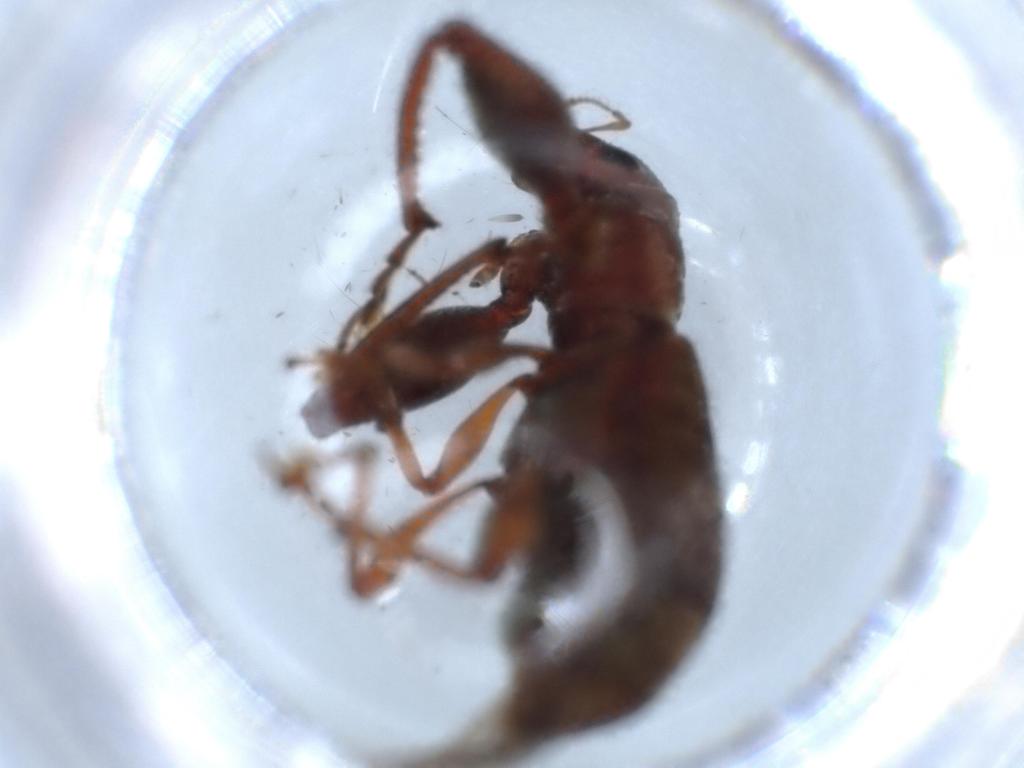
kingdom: Animalia
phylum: Arthropoda
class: Insecta
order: Coleoptera
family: Curculionidae
